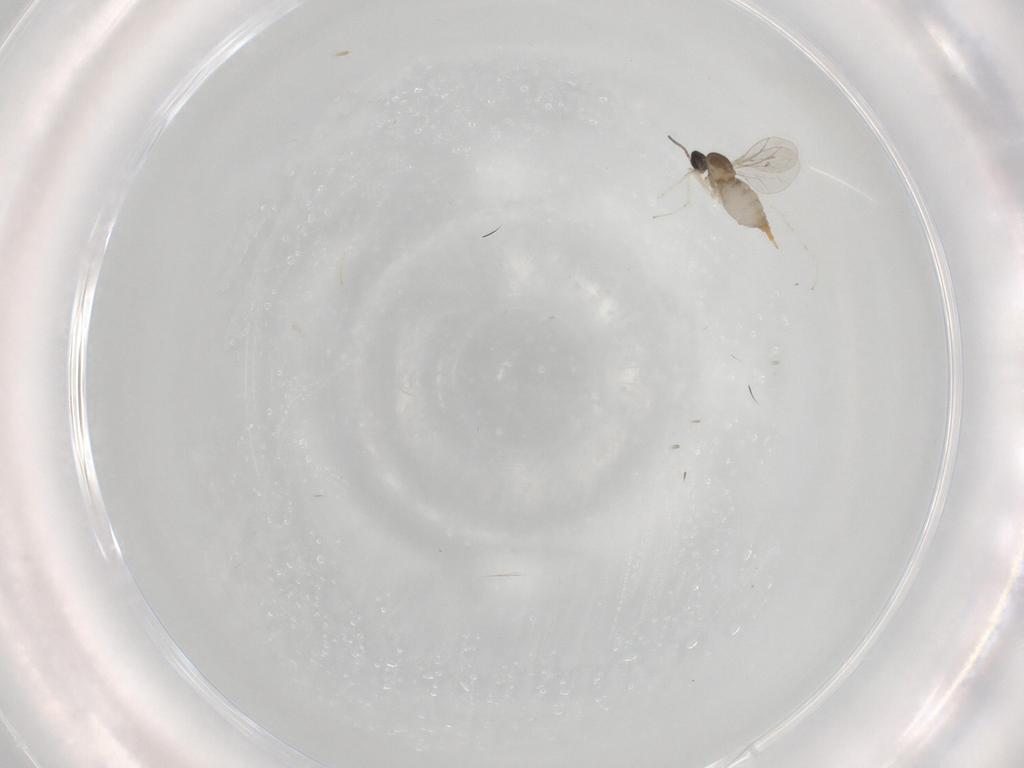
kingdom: Animalia
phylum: Arthropoda
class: Insecta
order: Diptera
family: Cecidomyiidae
